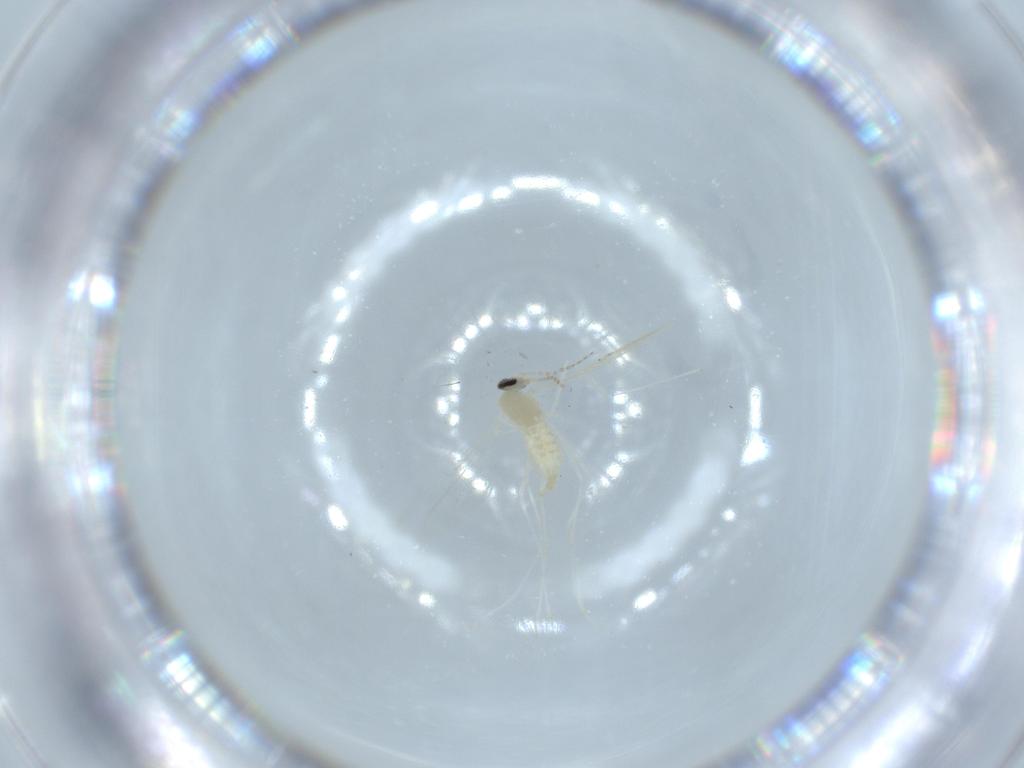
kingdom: Animalia
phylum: Arthropoda
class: Insecta
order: Diptera
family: Cecidomyiidae
